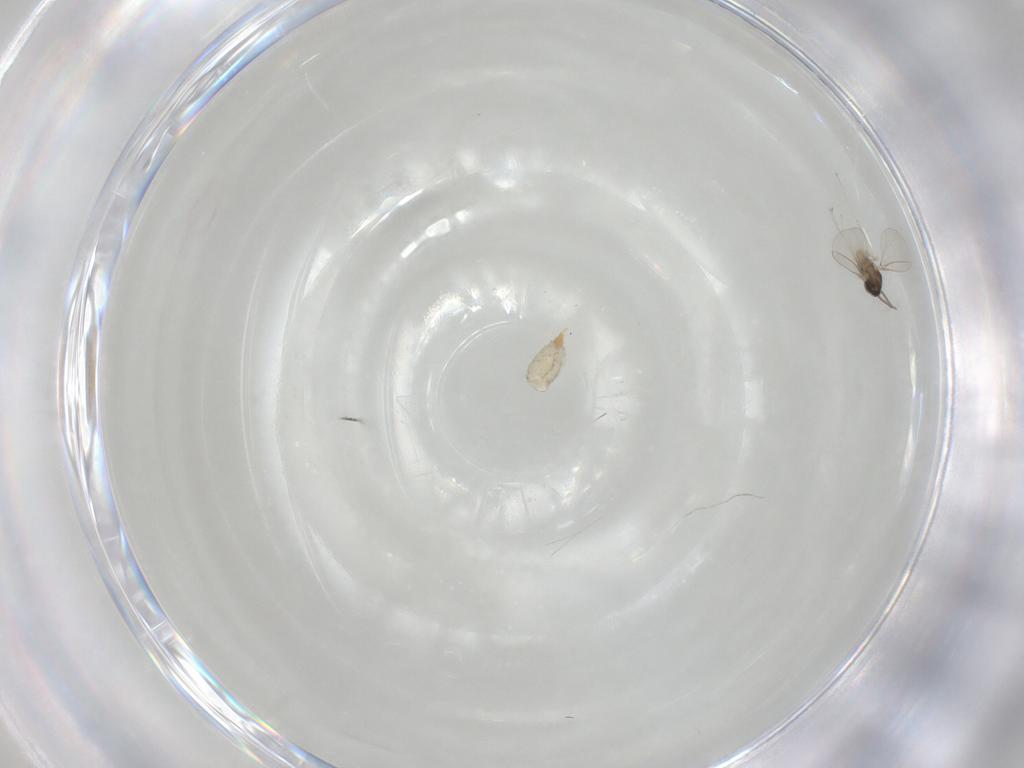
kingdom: Animalia
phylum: Arthropoda
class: Insecta
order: Diptera
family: Cecidomyiidae
